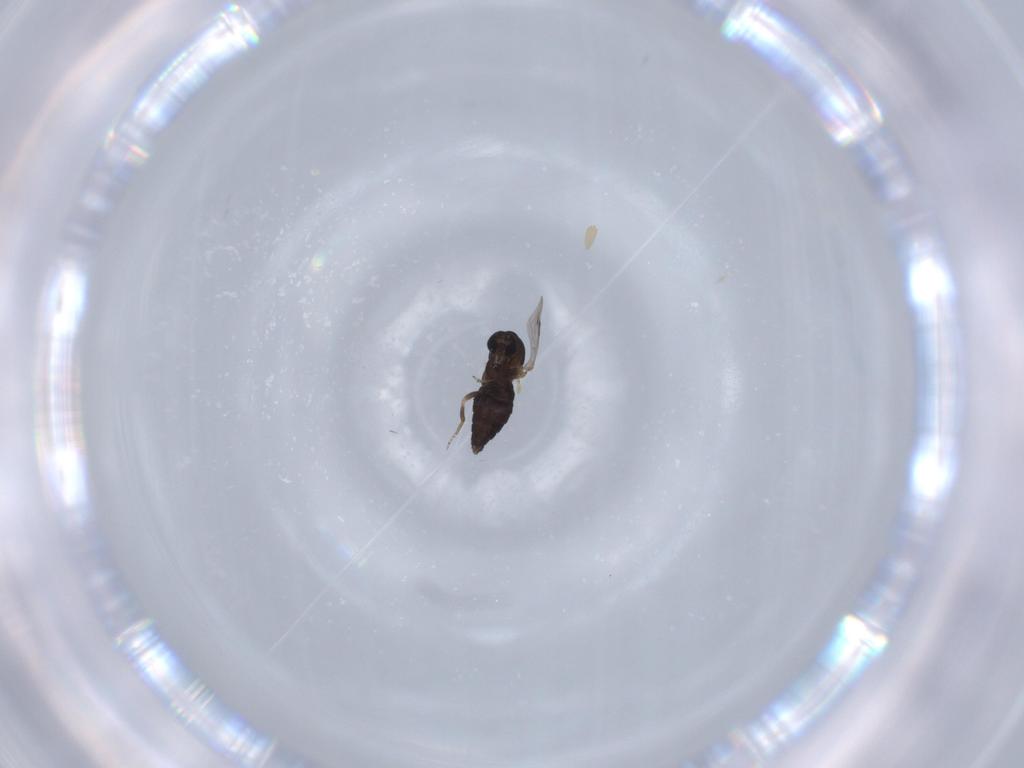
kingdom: Animalia
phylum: Arthropoda
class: Insecta
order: Diptera
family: Ceratopogonidae
